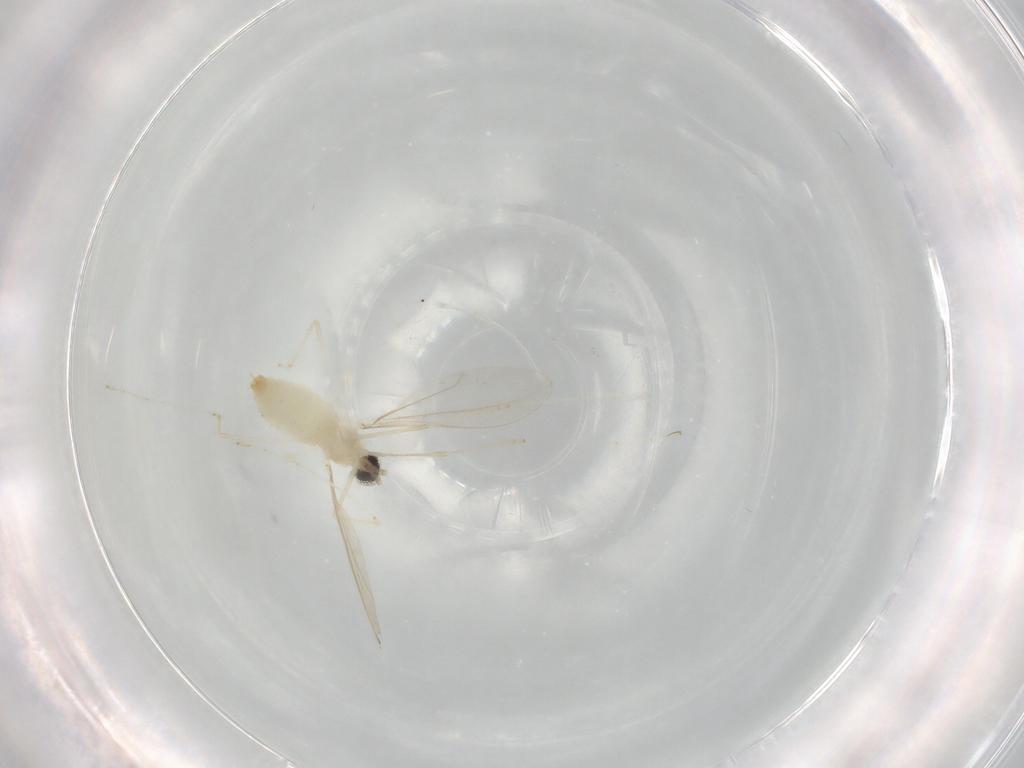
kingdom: Animalia
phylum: Arthropoda
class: Insecta
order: Diptera
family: Cecidomyiidae
